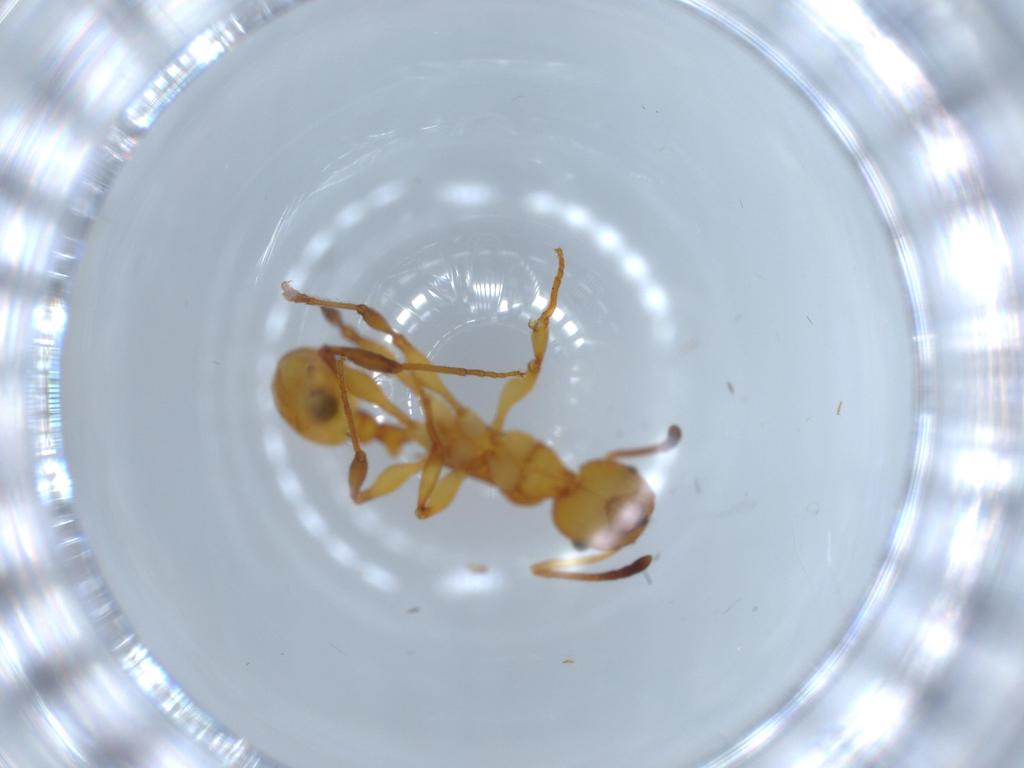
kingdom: Animalia
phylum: Arthropoda
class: Insecta
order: Hymenoptera
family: Formicidae
